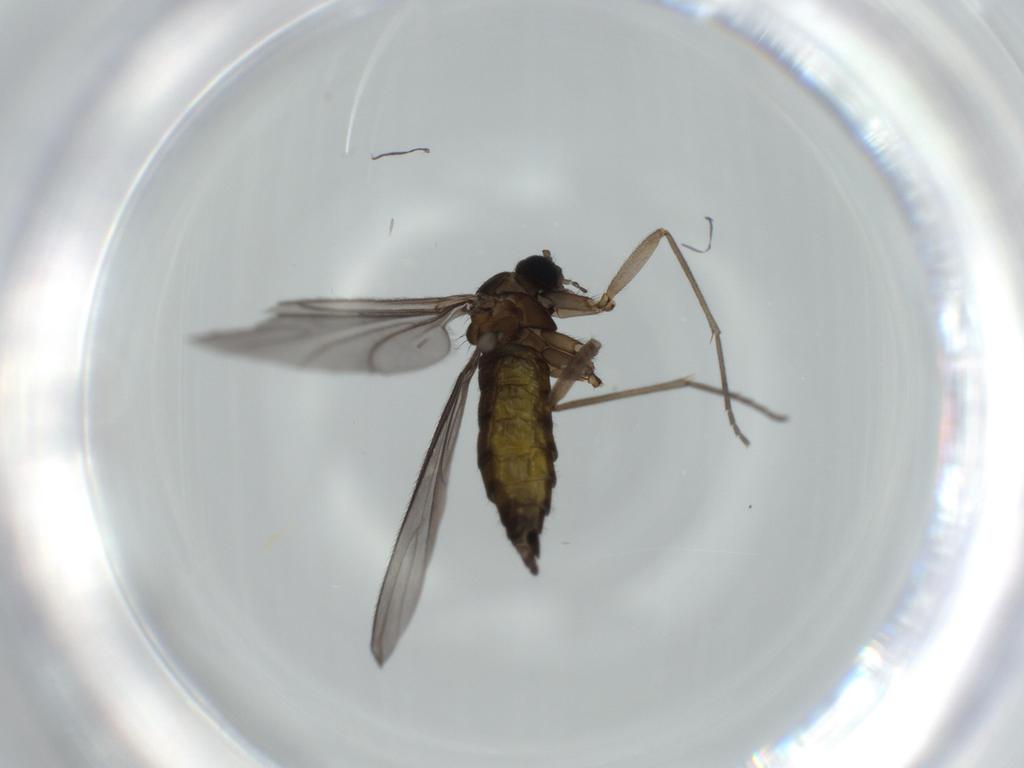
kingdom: Animalia
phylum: Arthropoda
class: Insecta
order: Diptera
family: Sciaridae
